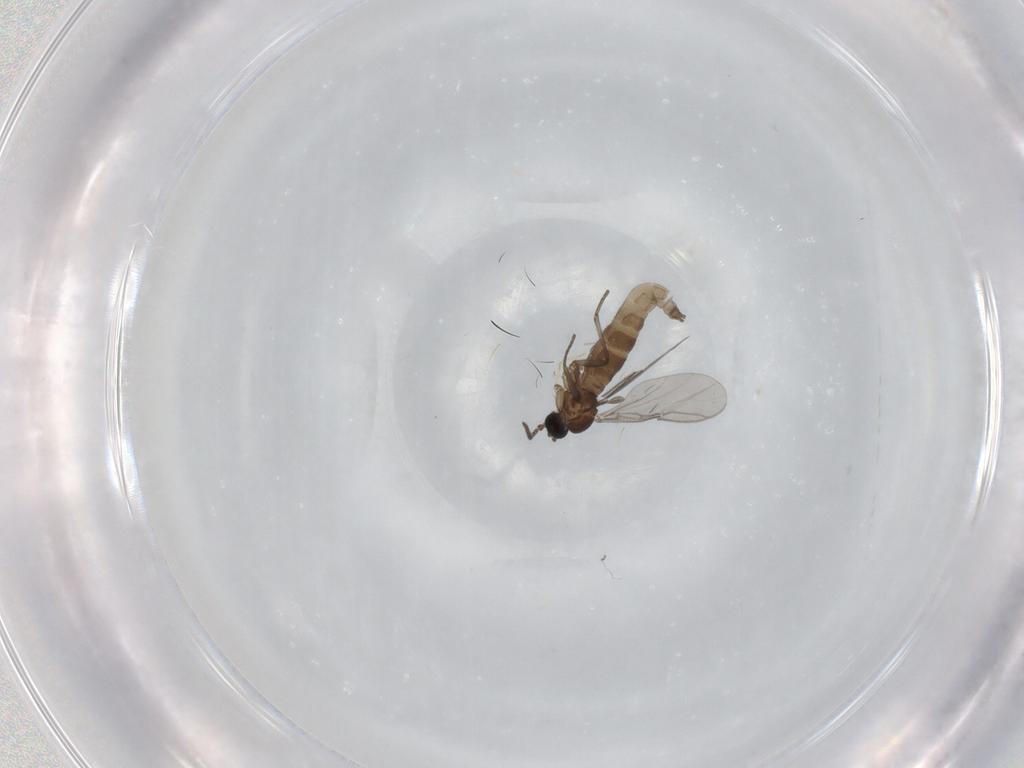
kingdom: Animalia
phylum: Arthropoda
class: Insecta
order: Diptera
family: Sciaridae
